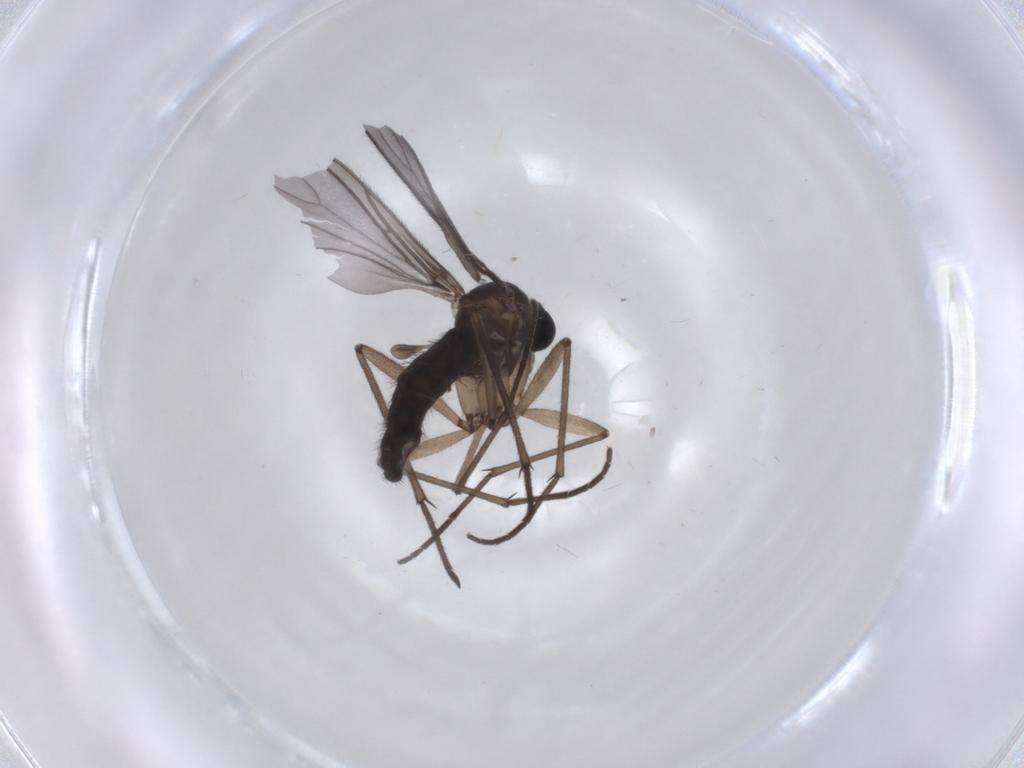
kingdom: Animalia
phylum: Arthropoda
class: Insecta
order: Diptera
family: Sciaridae
